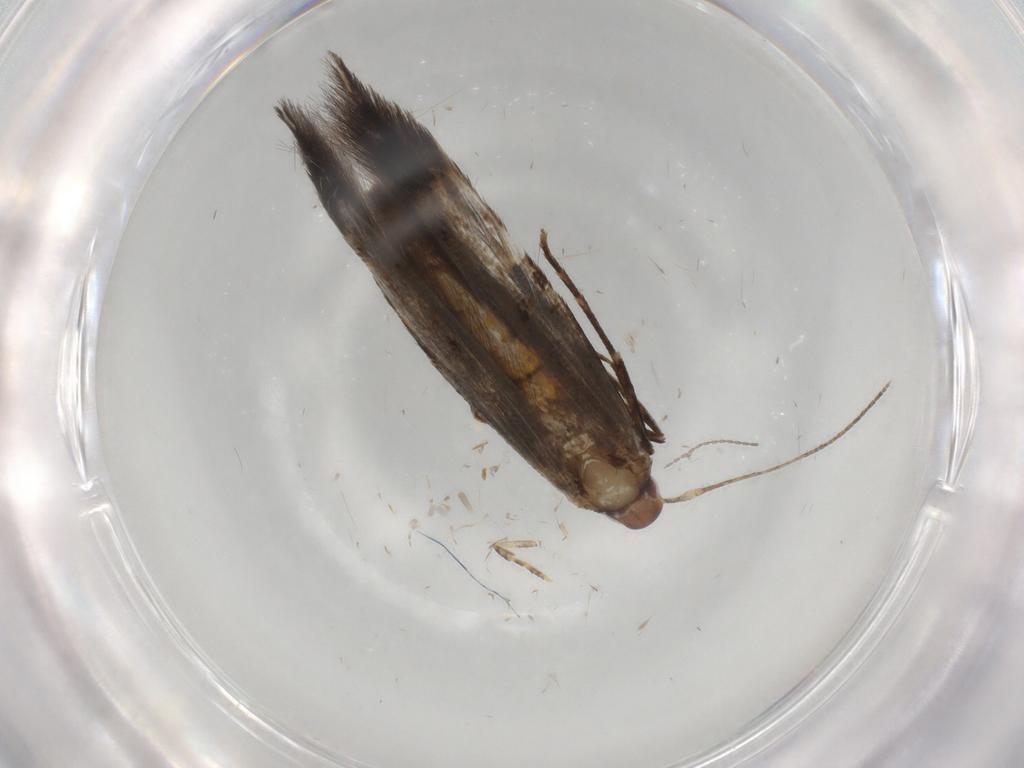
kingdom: Animalia
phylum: Arthropoda
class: Insecta
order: Lepidoptera
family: Cosmopterigidae
